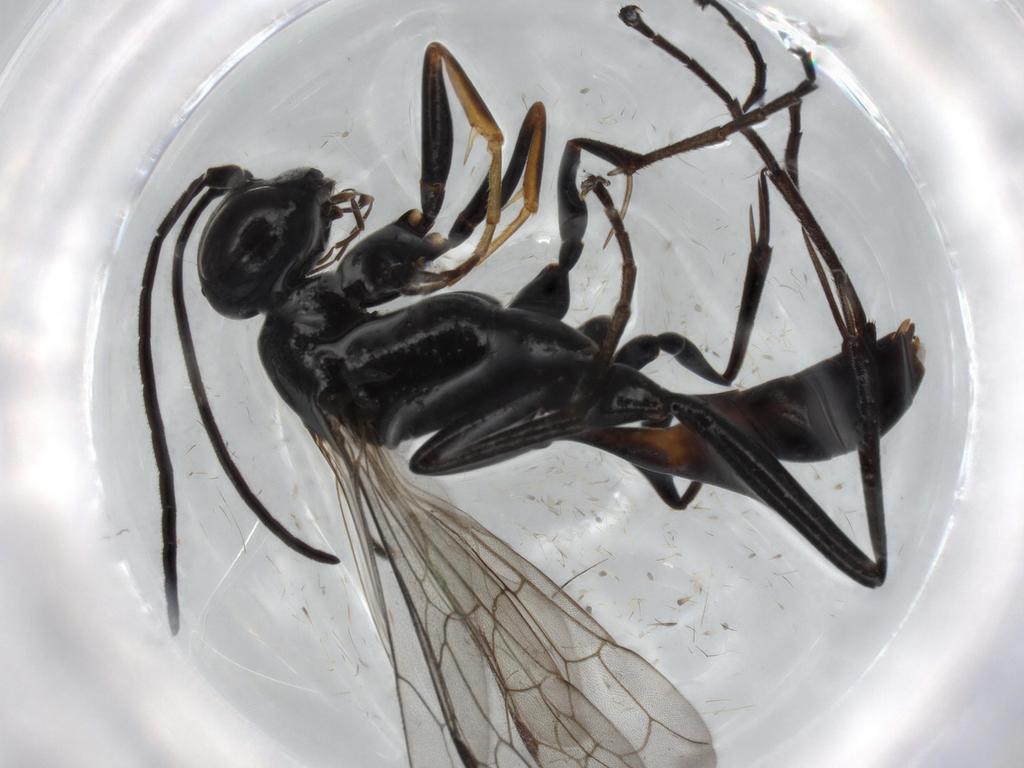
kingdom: Animalia
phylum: Arthropoda
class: Insecta
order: Hymenoptera
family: Pompilidae
